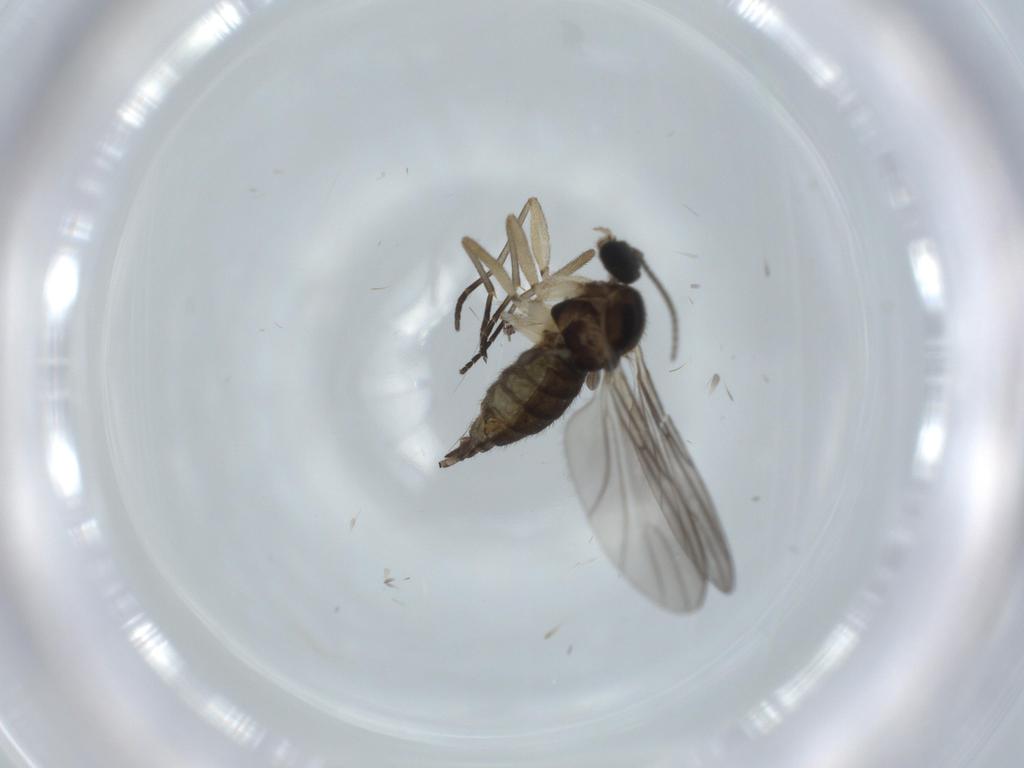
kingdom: Animalia
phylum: Arthropoda
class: Insecta
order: Diptera
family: Sciaridae
